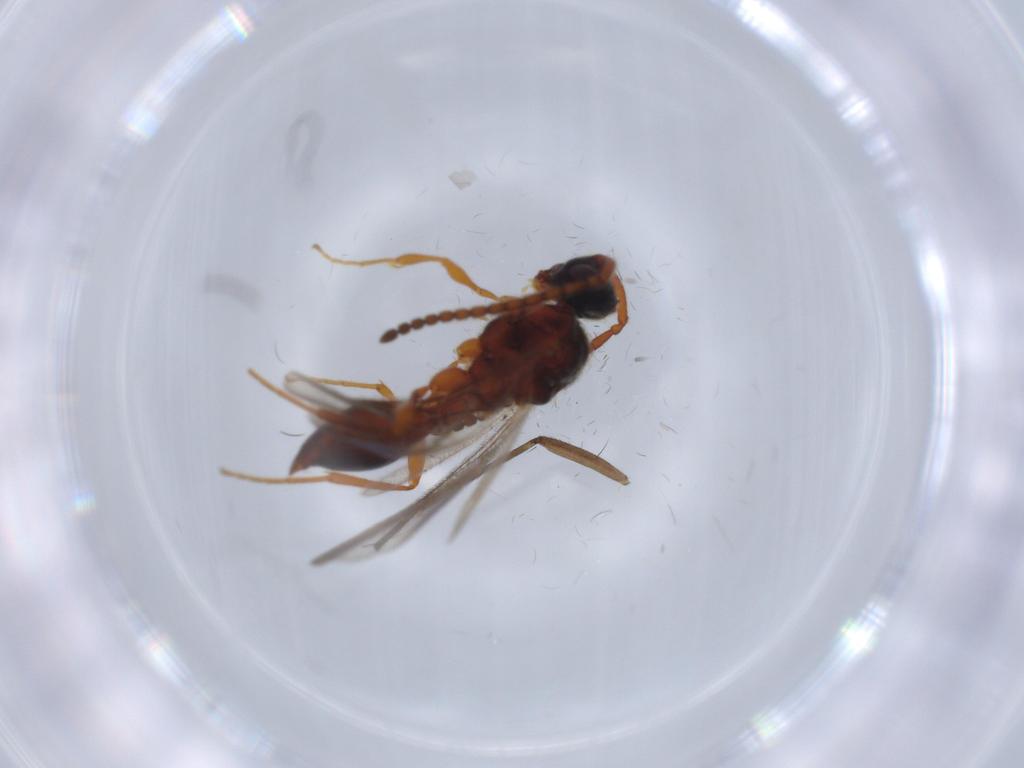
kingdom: Animalia
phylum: Arthropoda
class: Insecta
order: Hymenoptera
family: Diapriidae
